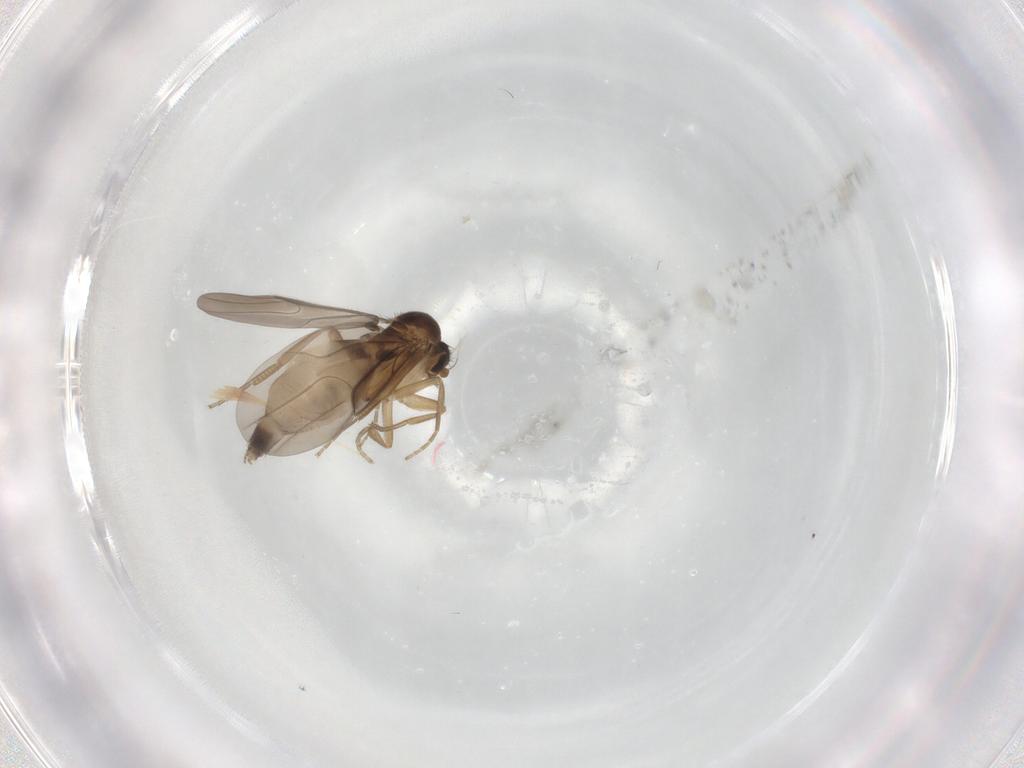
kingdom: Animalia
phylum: Arthropoda
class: Insecta
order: Diptera
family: Phoridae
